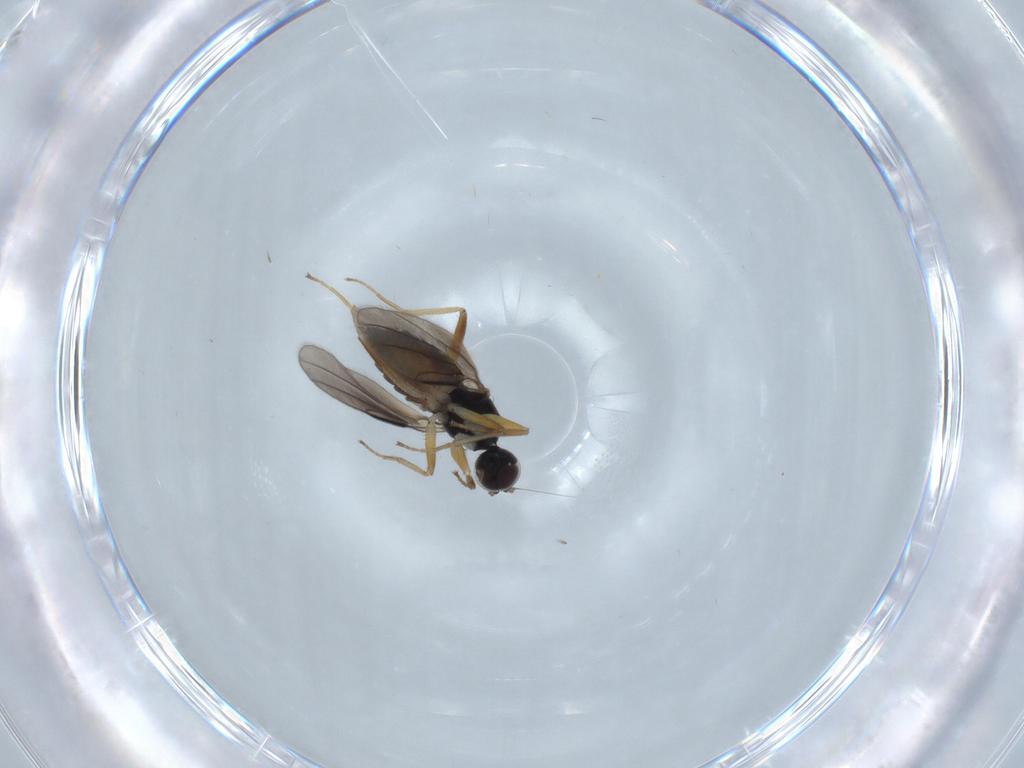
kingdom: Animalia
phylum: Arthropoda
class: Insecta
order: Diptera
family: Hybotidae
